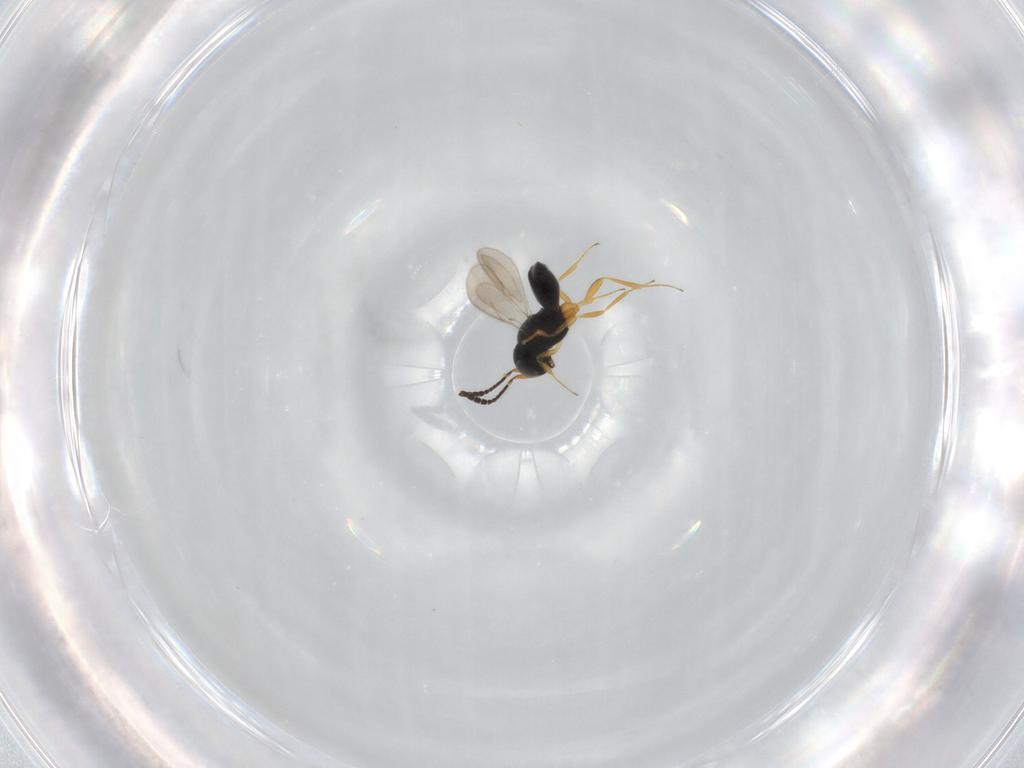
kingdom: Animalia
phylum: Arthropoda
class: Insecta
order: Hymenoptera
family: Scelionidae
